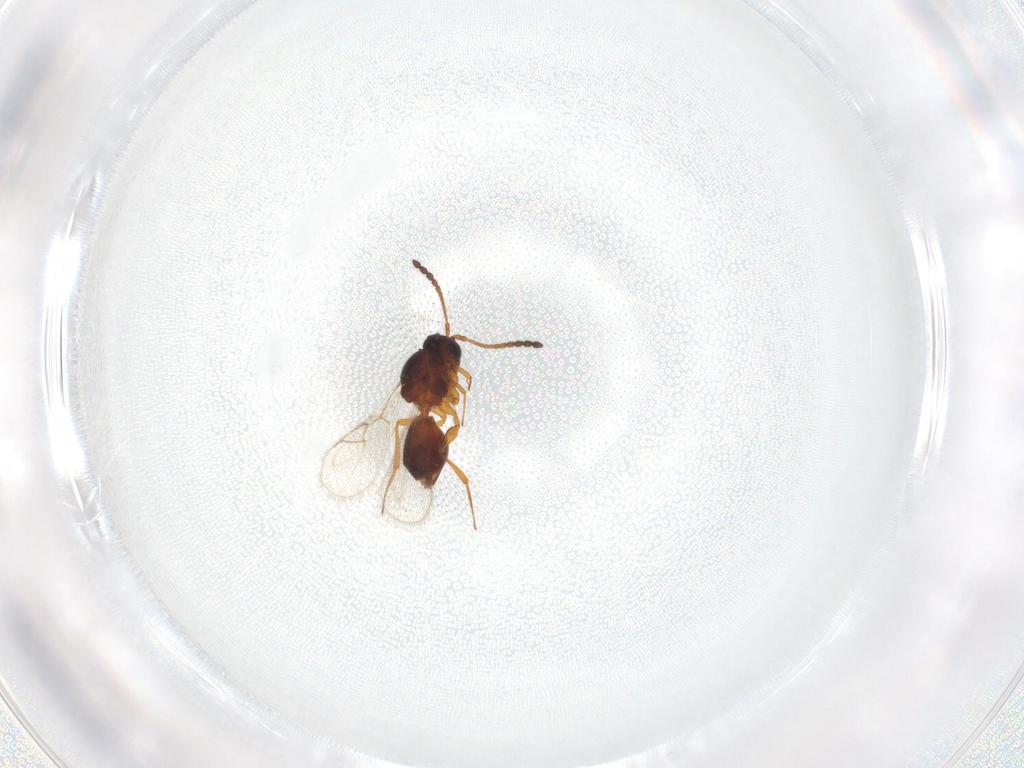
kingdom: Animalia
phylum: Arthropoda
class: Insecta
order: Hymenoptera
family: Figitidae
